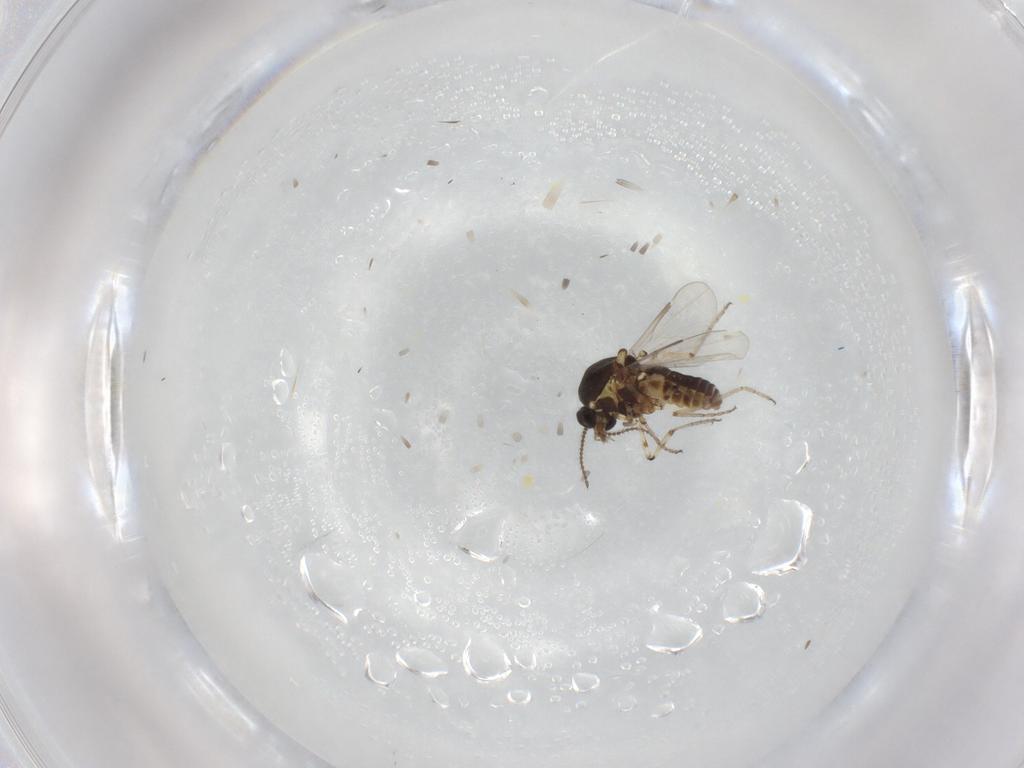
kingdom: Animalia
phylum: Arthropoda
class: Insecta
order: Diptera
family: Ceratopogonidae
